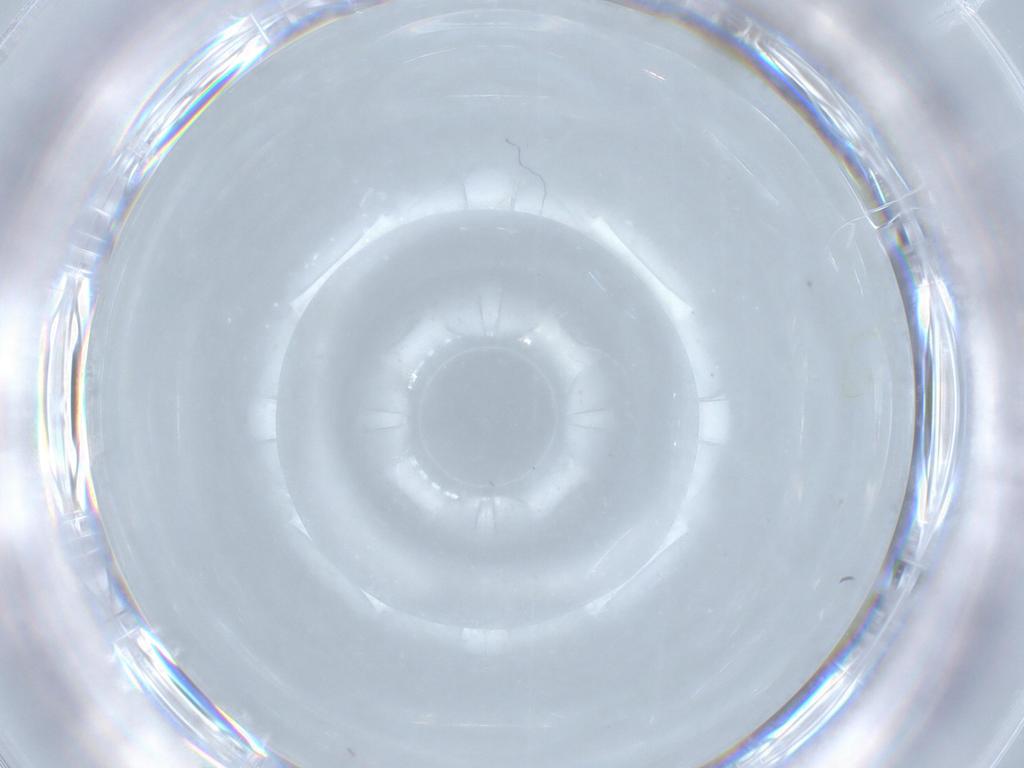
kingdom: Animalia
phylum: Arthropoda
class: Insecta
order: Diptera
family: Cecidomyiidae
